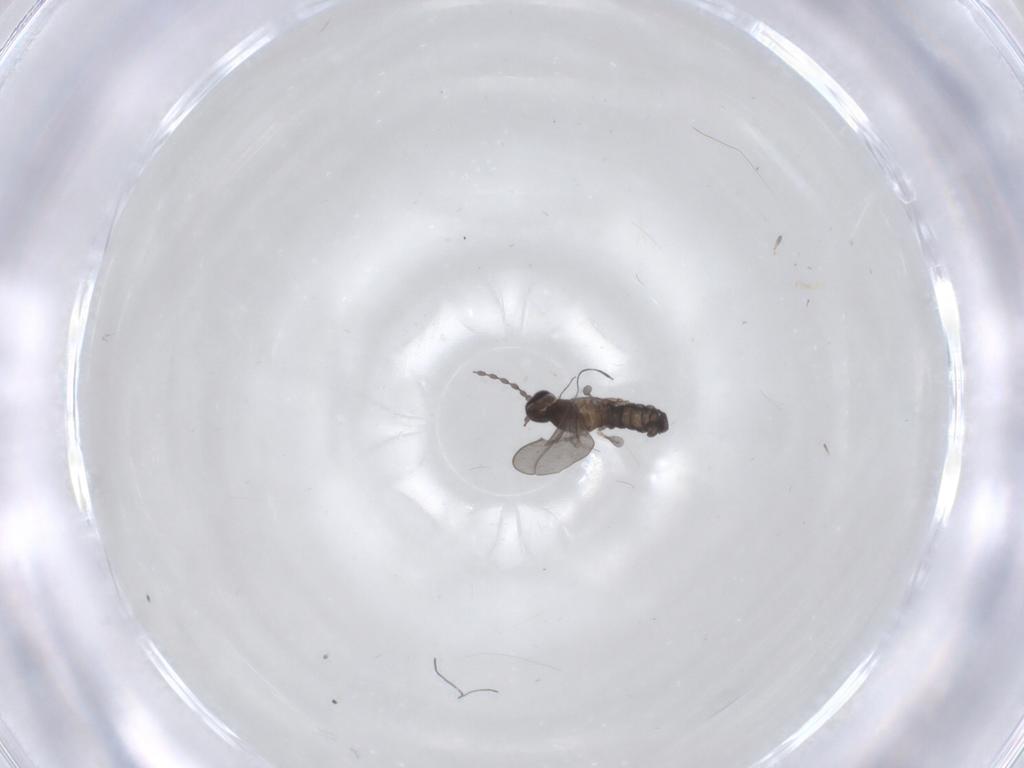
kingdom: Animalia
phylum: Arthropoda
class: Insecta
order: Diptera
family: Cecidomyiidae
